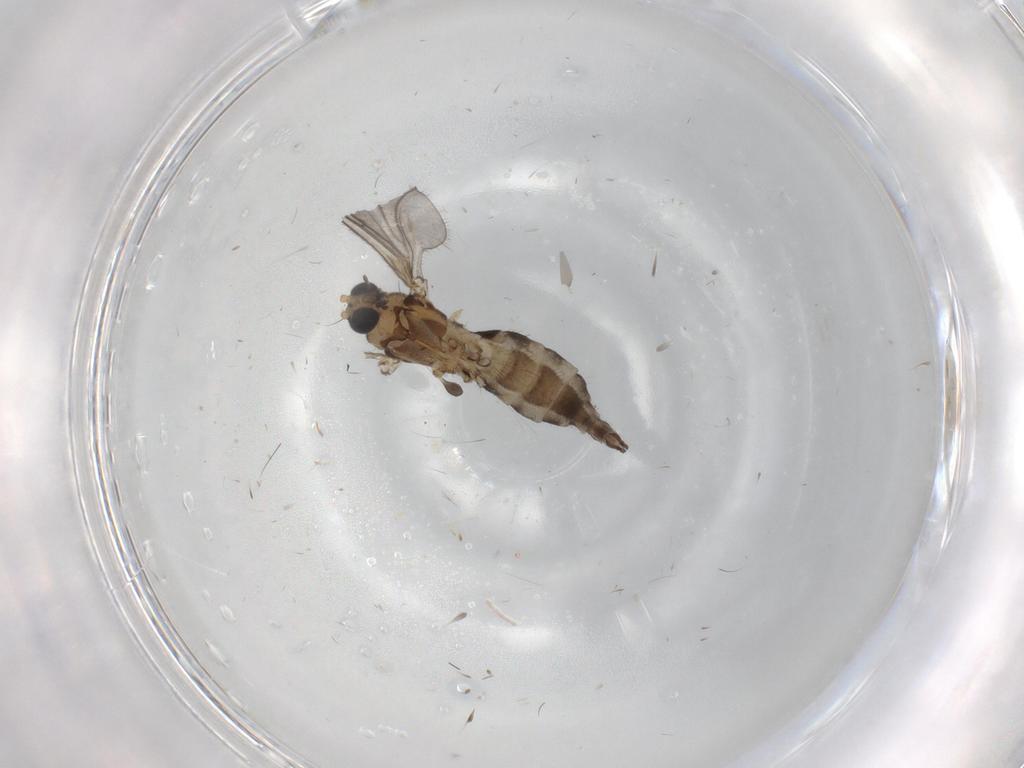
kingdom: Animalia
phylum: Arthropoda
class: Insecta
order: Diptera
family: Sciaridae
